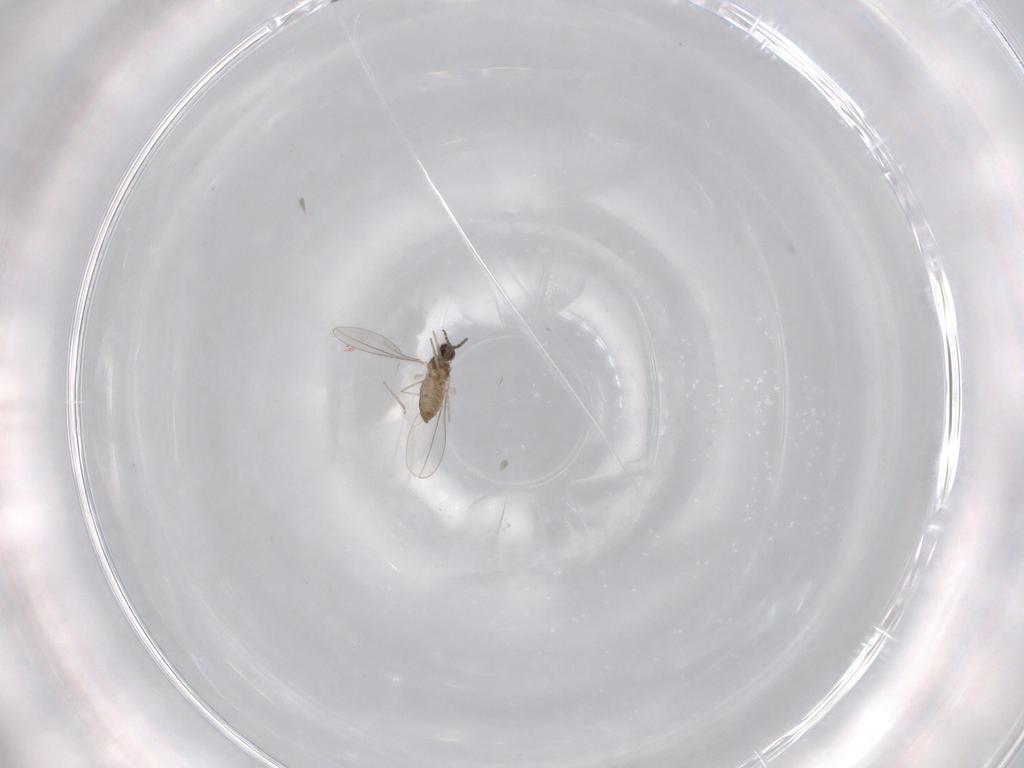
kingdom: Animalia
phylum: Arthropoda
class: Insecta
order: Diptera
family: Cecidomyiidae
